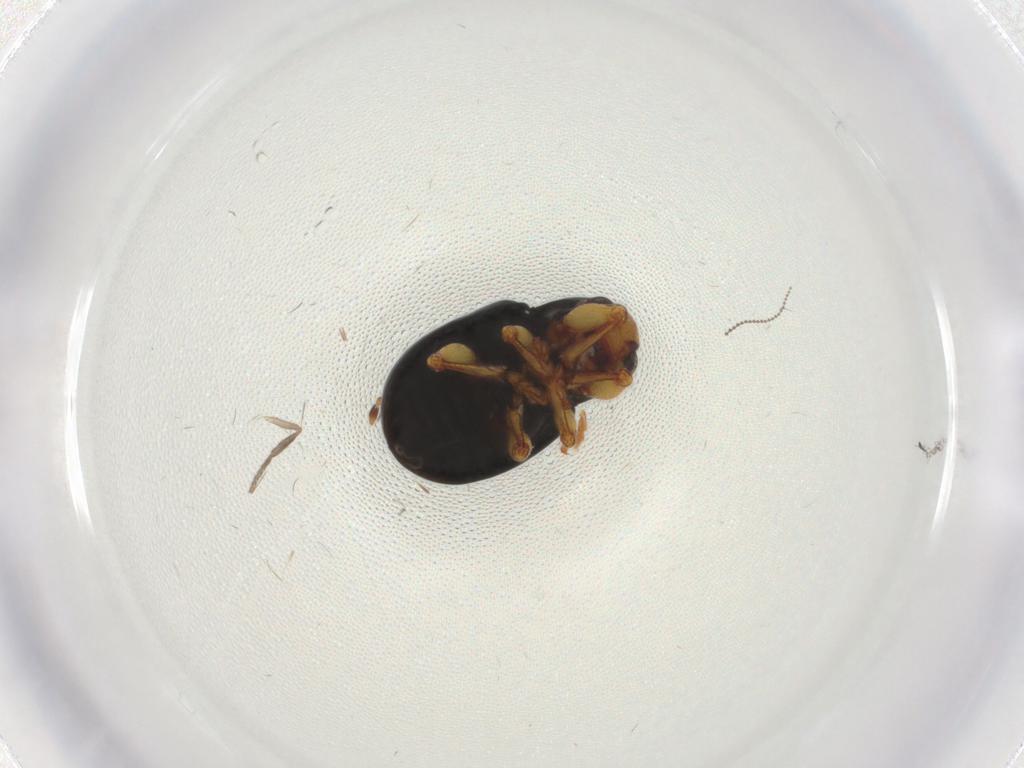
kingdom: Animalia
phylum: Arthropoda
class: Insecta
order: Coleoptera
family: Chrysomelidae
